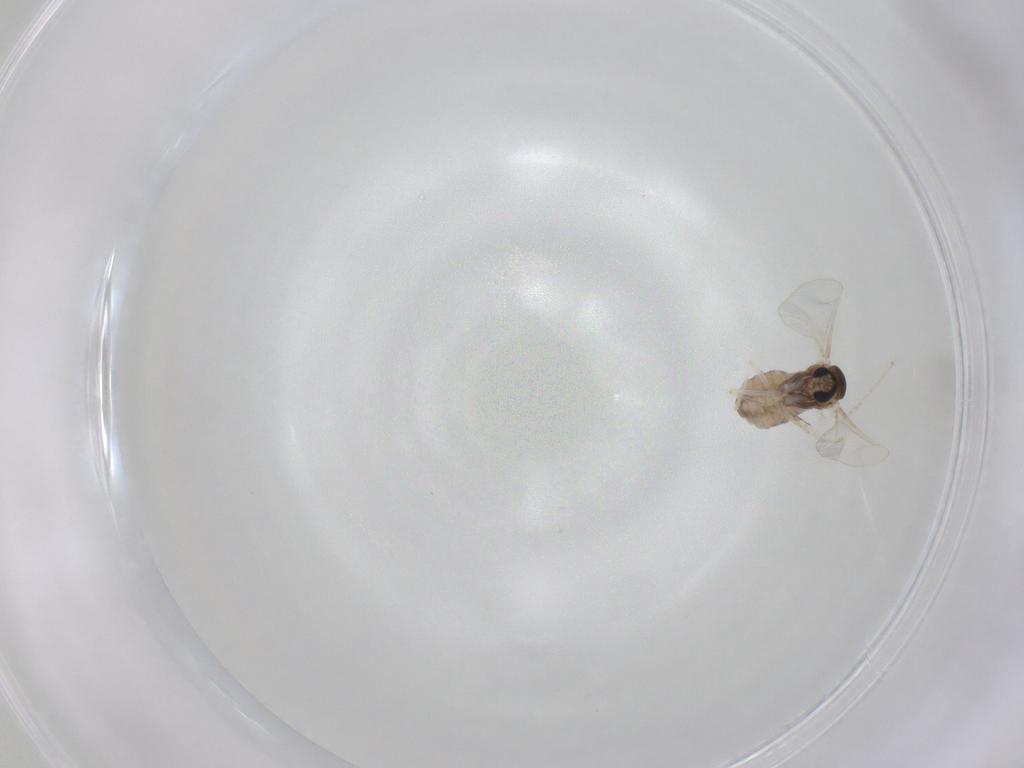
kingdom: Animalia
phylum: Arthropoda
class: Insecta
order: Diptera
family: Cecidomyiidae
